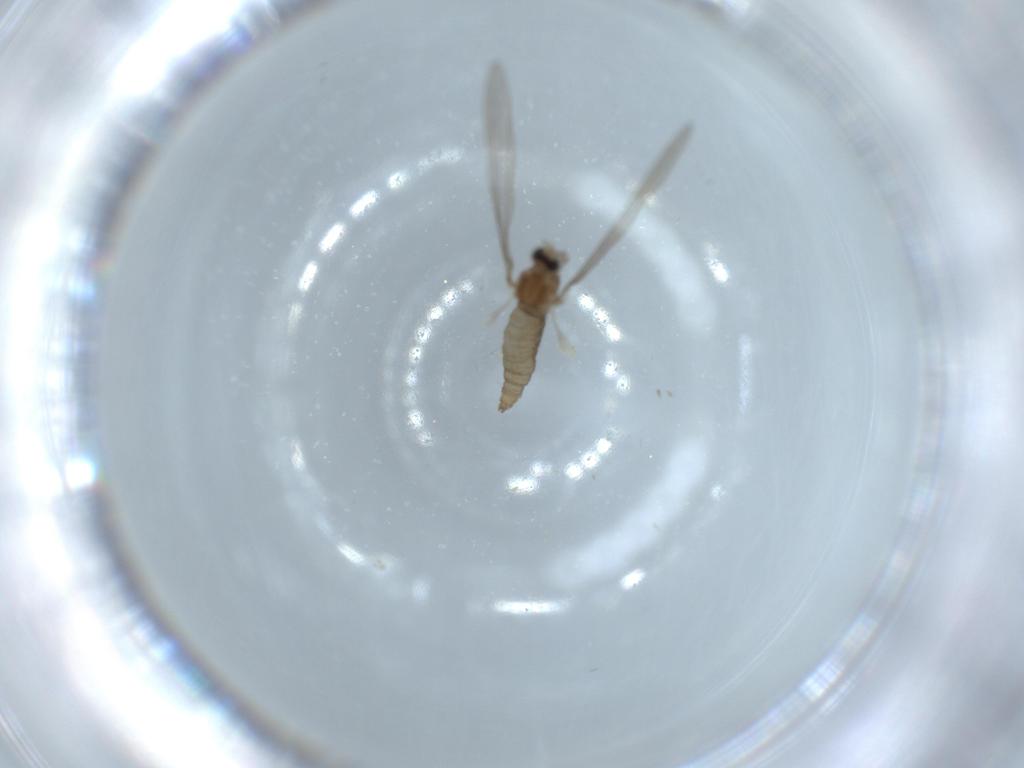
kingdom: Animalia
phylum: Arthropoda
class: Insecta
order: Diptera
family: Cecidomyiidae
